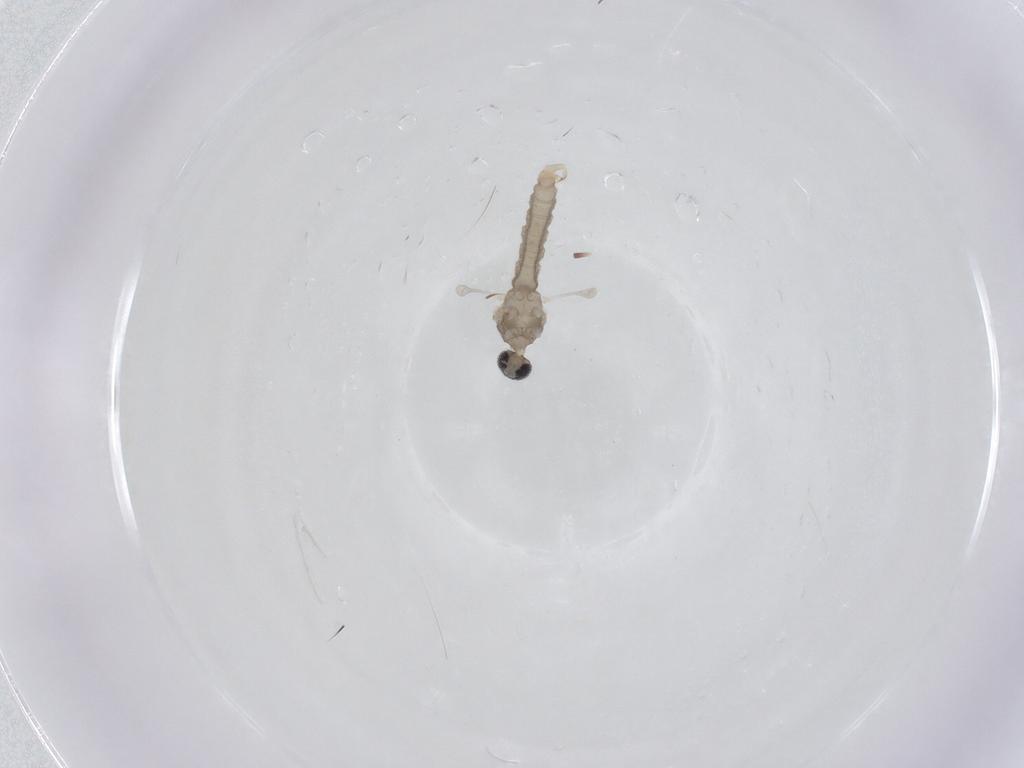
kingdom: Animalia
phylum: Arthropoda
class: Insecta
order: Diptera
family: Cecidomyiidae
